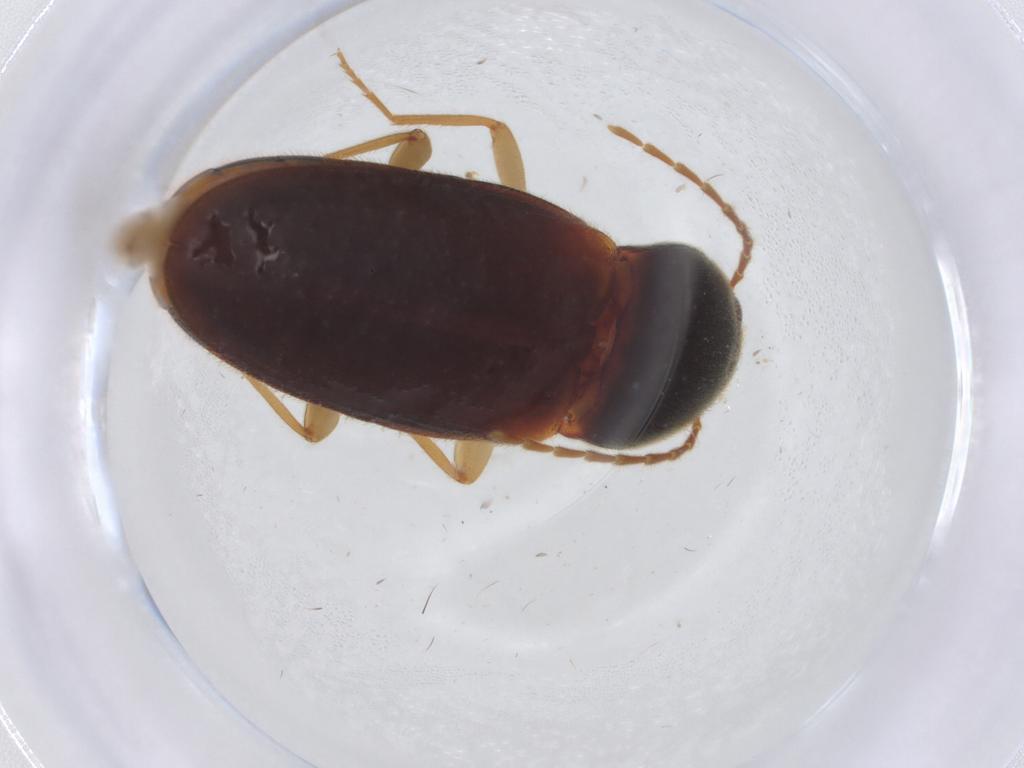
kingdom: Animalia
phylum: Arthropoda
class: Insecta
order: Coleoptera
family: Elateridae
